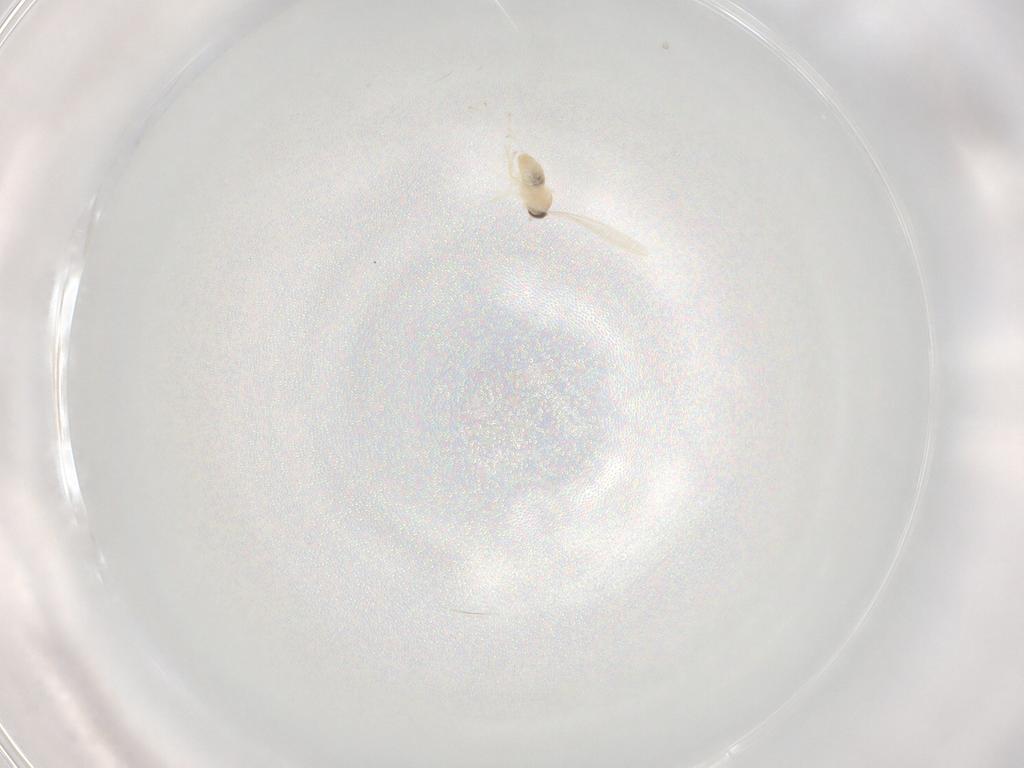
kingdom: Animalia
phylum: Arthropoda
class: Insecta
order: Diptera
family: Cecidomyiidae
